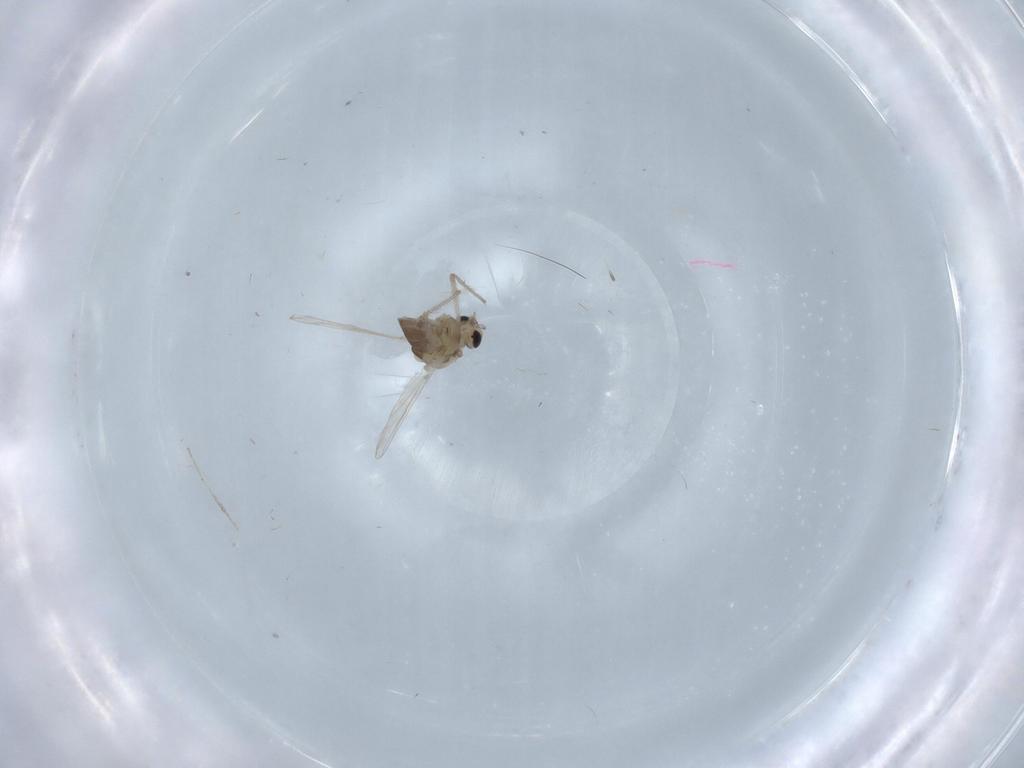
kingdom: Animalia
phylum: Arthropoda
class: Insecta
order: Diptera
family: Chironomidae
